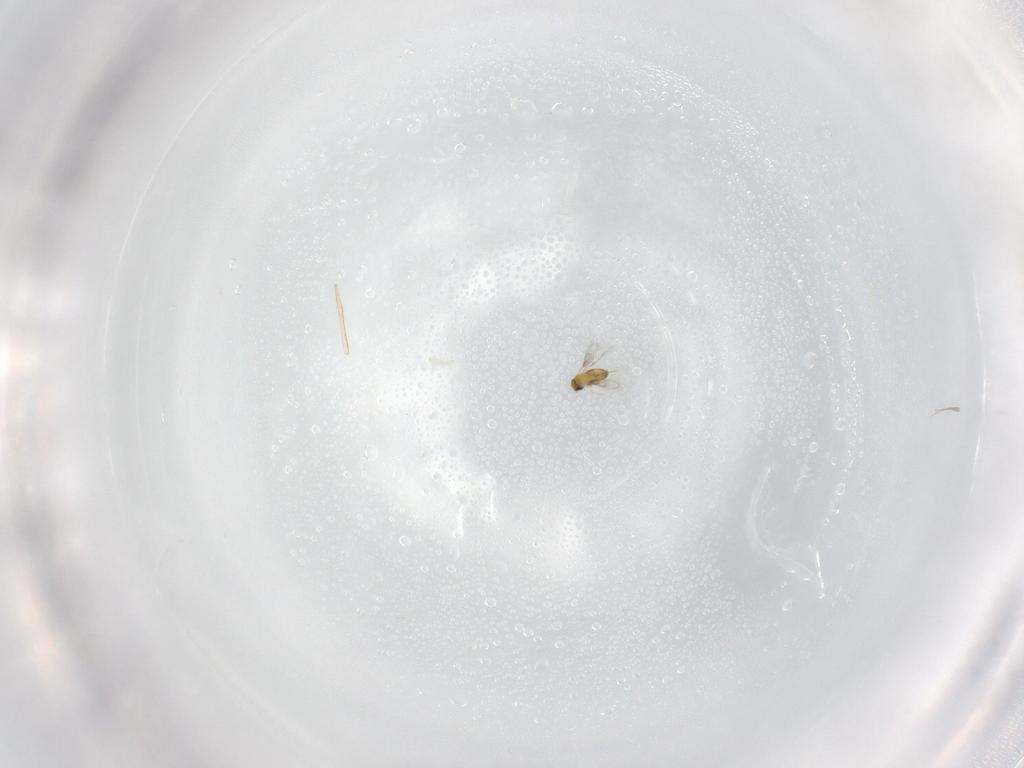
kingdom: Animalia
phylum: Arthropoda
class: Insecta
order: Hymenoptera
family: Trichogrammatidae
